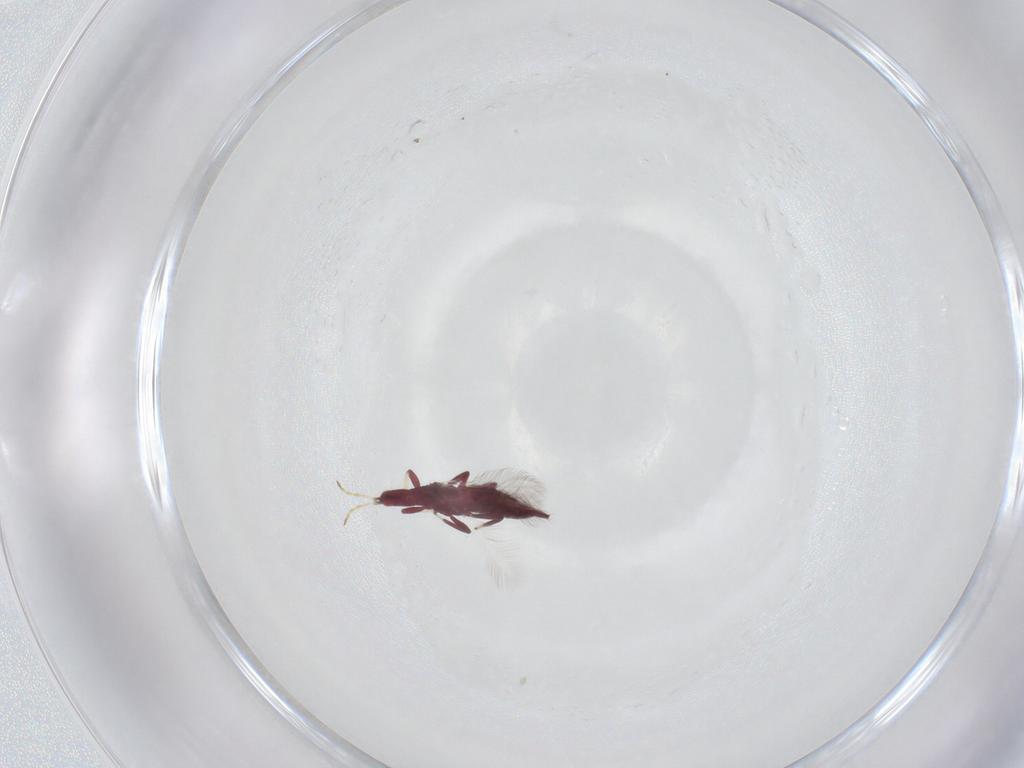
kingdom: Animalia
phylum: Arthropoda
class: Insecta
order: Thysanoptera
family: Phlaeothripidae
